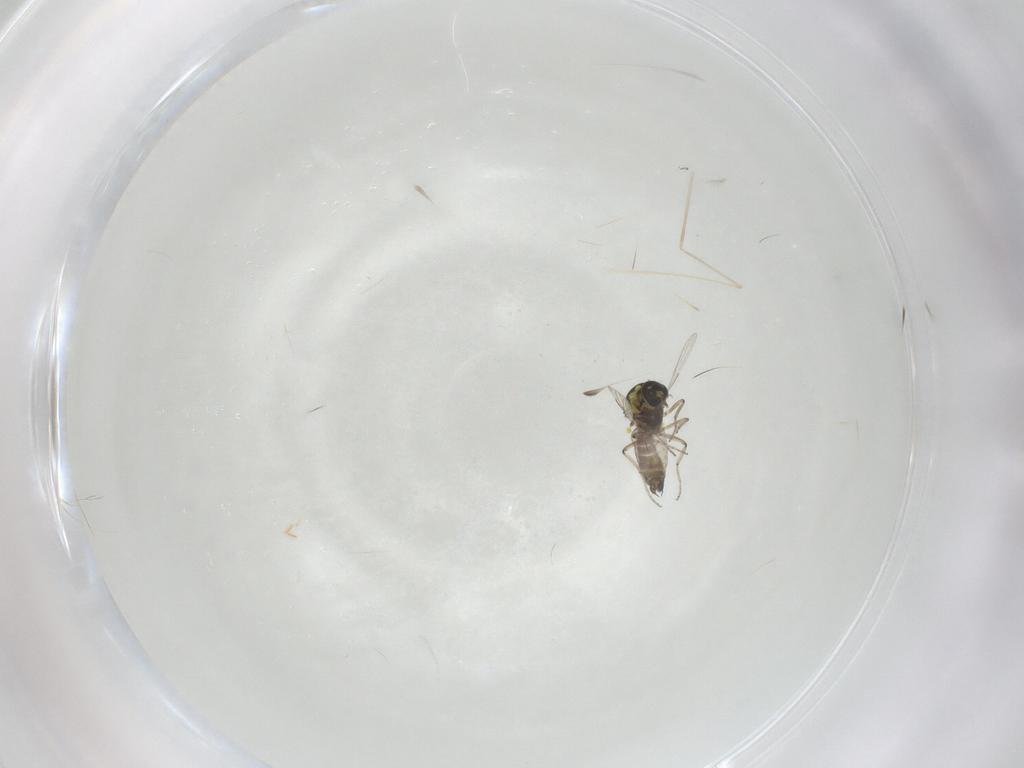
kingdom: Animalia
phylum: Arthropoda
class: Insecta
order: Diptera
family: Ceratopogonidae
